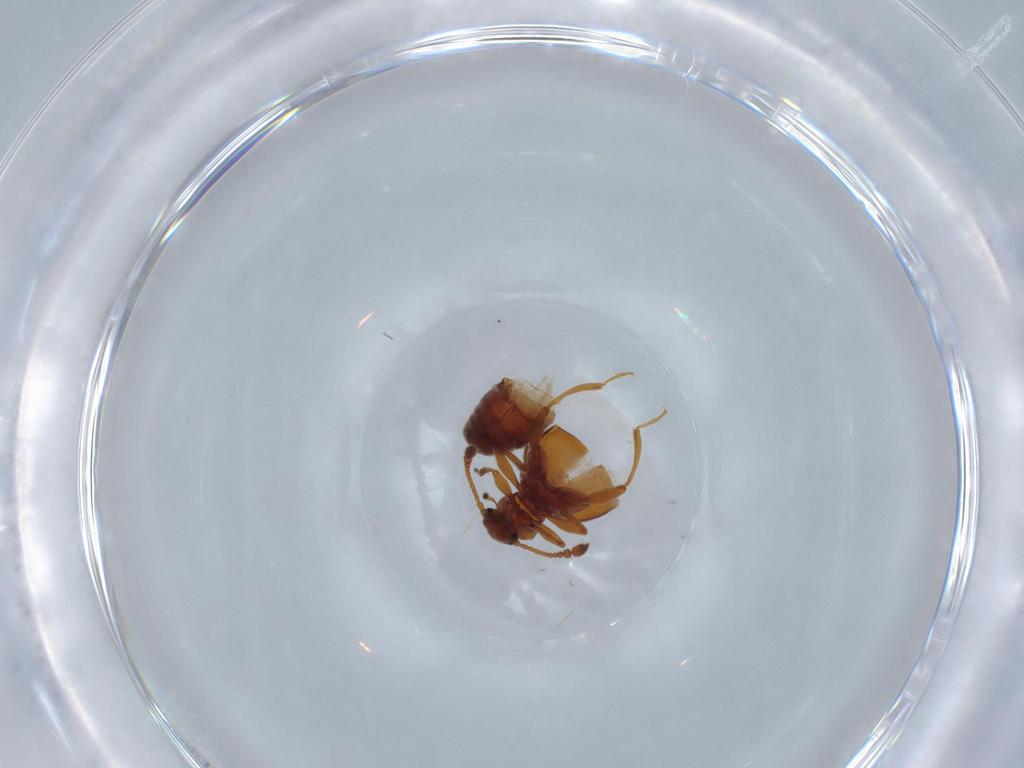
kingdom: Animalia
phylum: Arthropoda
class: Insecta
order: Coleoptera
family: Staphylinidae
